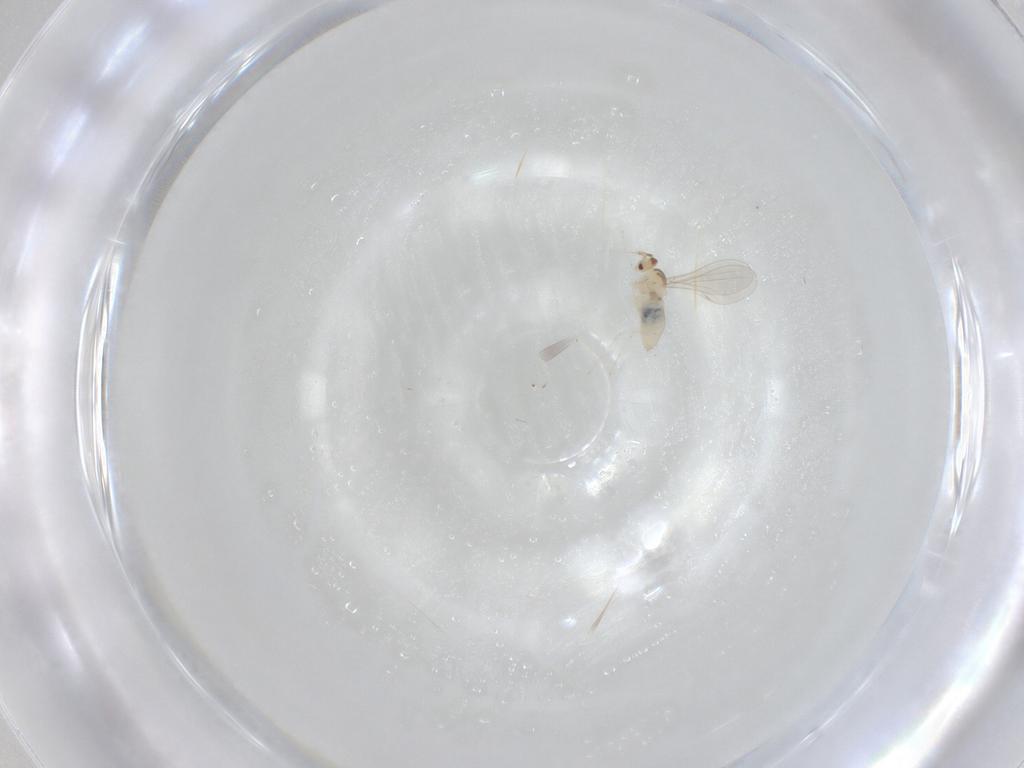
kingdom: Animalia
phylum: Arthropoda
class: Insecta
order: Diptera
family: Cecidomyiidae
